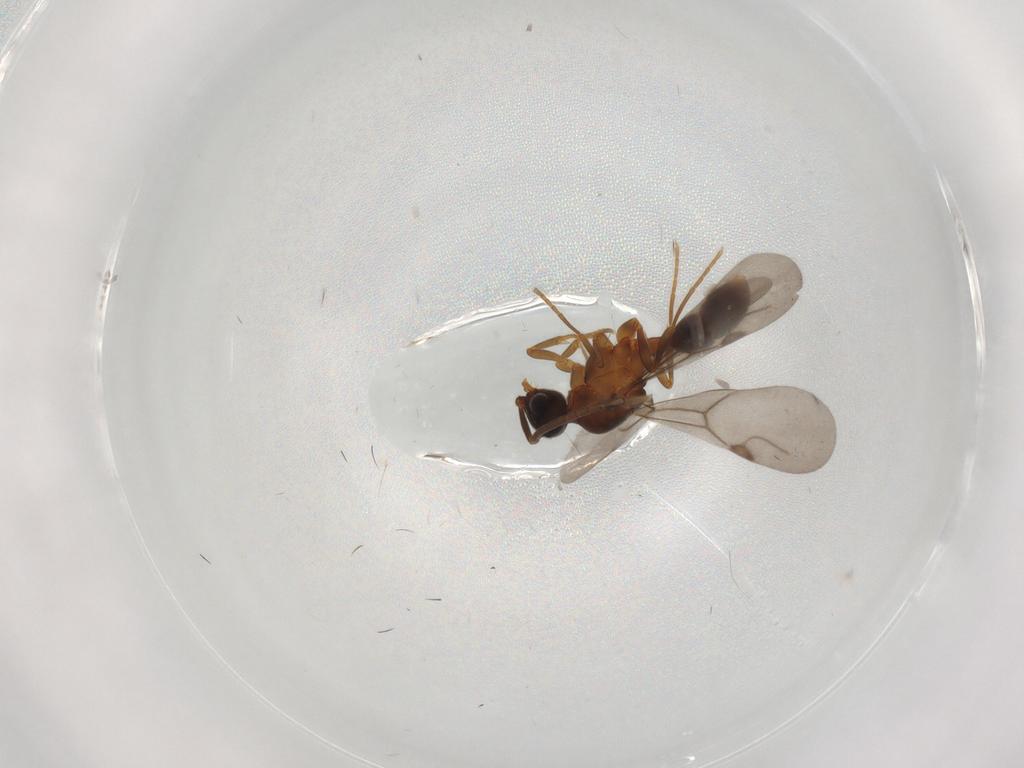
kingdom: Animalia
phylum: Arthropoda
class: Insecta
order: Hymenoptera
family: Formicidae
